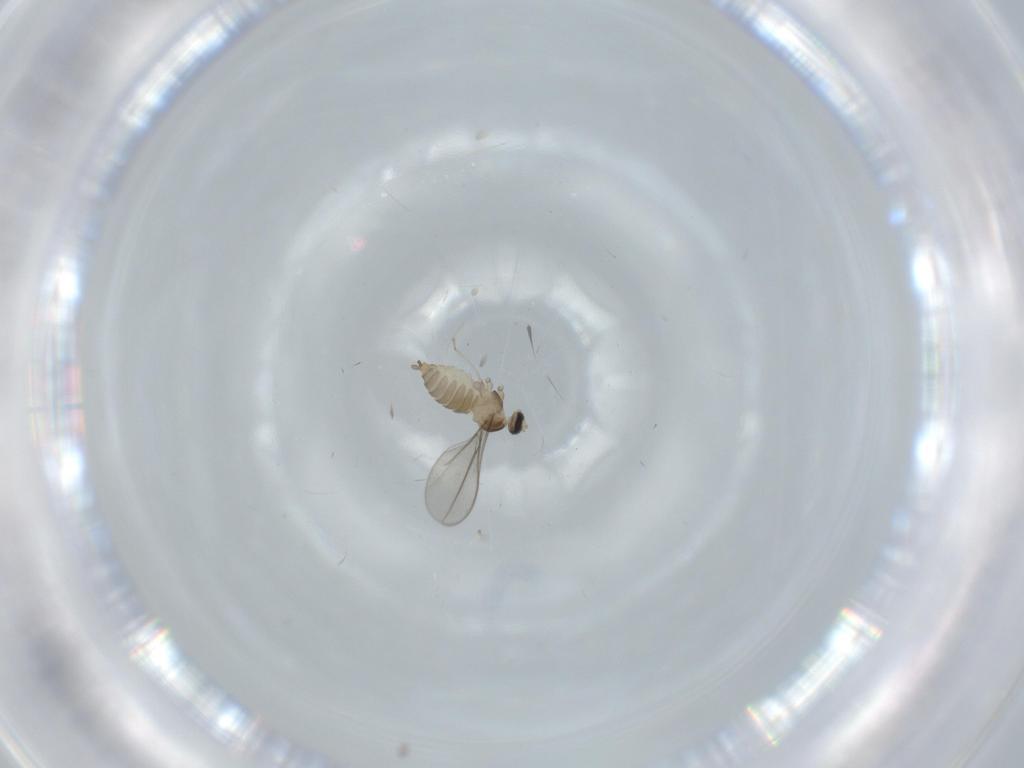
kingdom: Animalia
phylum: Arthropoda
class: Insecta
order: Diptera
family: Cecidomyiidae
